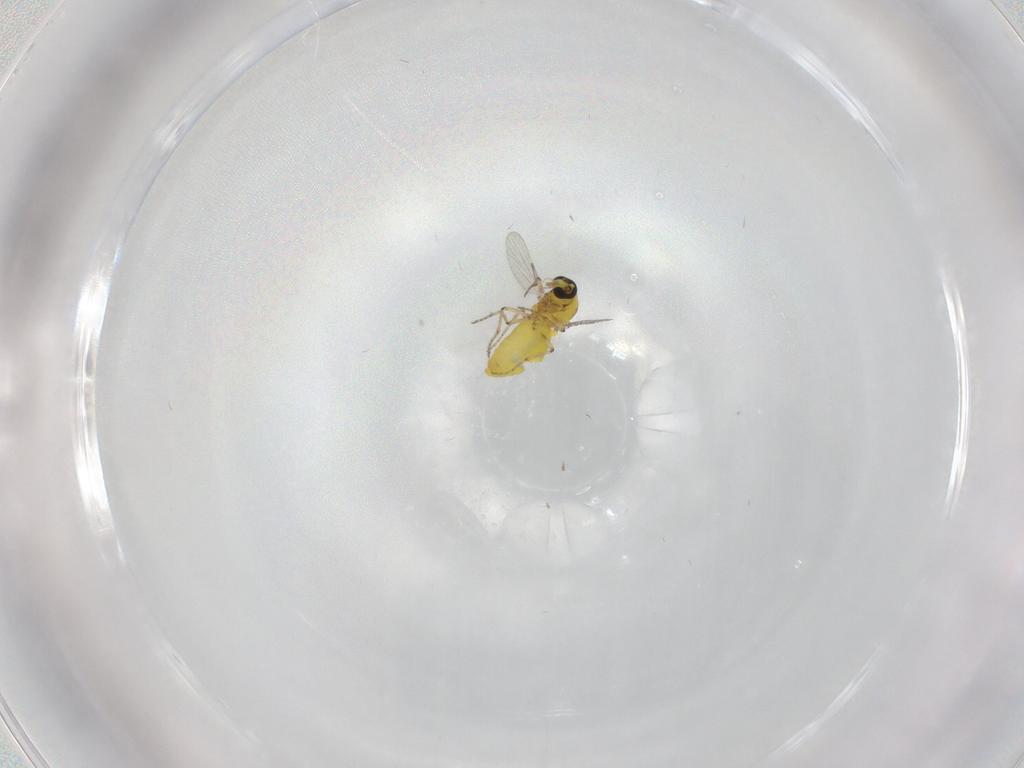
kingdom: Animalia
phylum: Arthropoda
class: Insecta
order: Diptera
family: Ceratopogonidae
